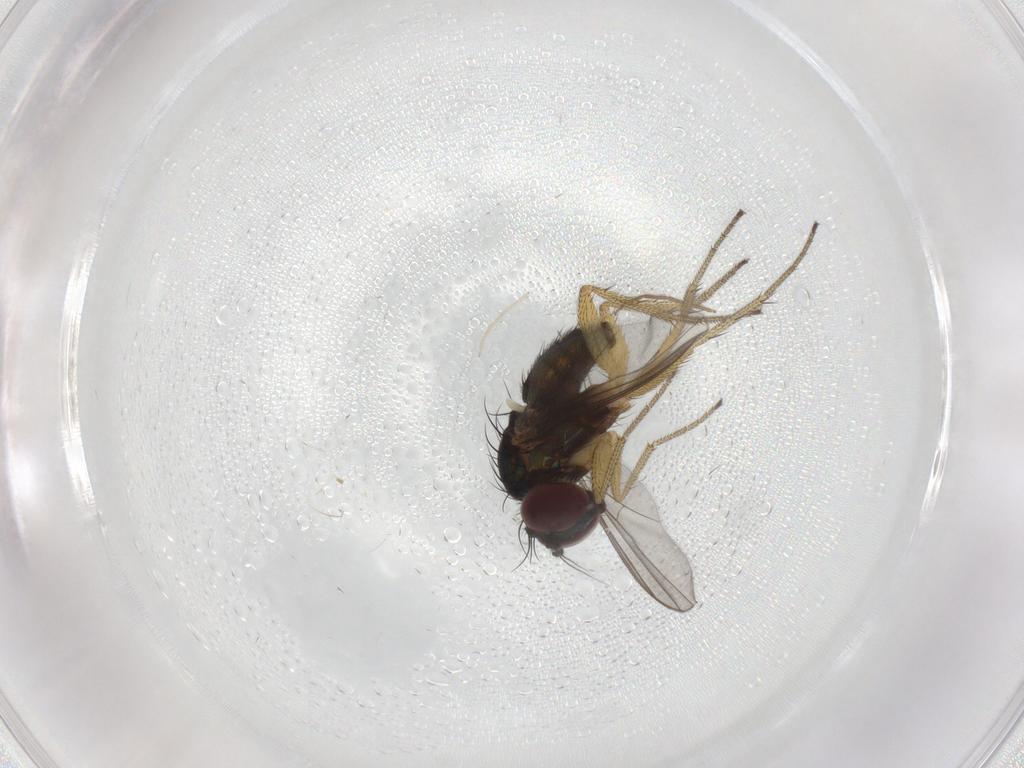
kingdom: Animalia
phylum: Arthropoda
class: Insecta
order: Diptera
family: Dolichopodidae
